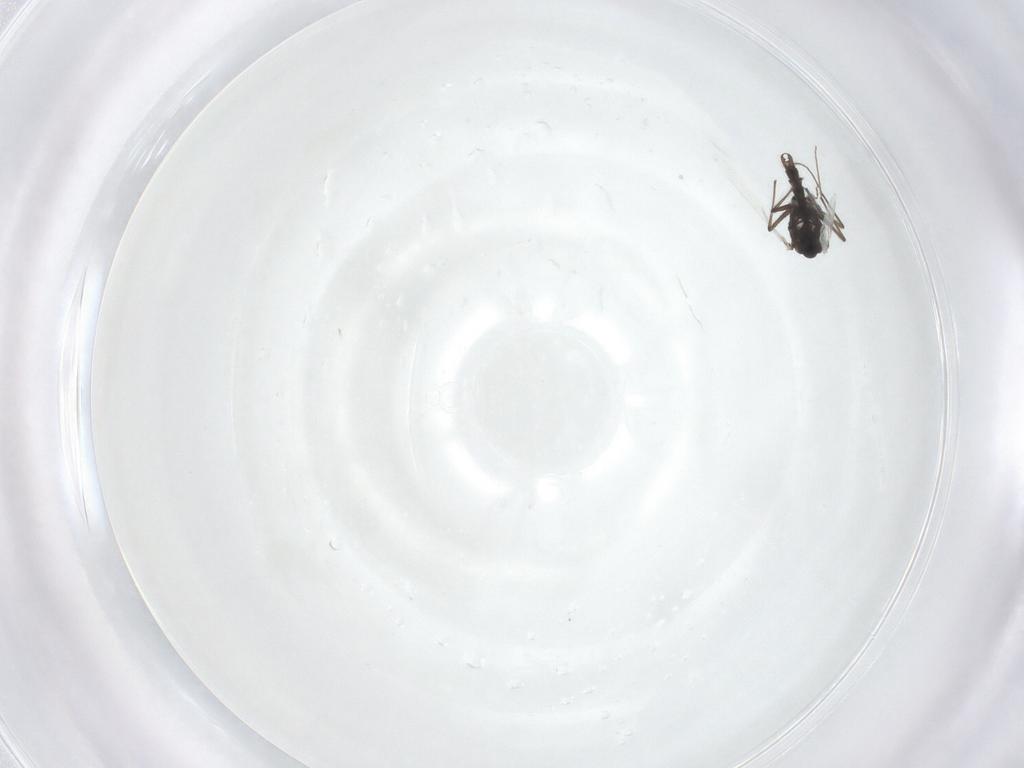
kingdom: Animalia
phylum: Arthropoda
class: Insecta
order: Diptera
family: Chironomidae
